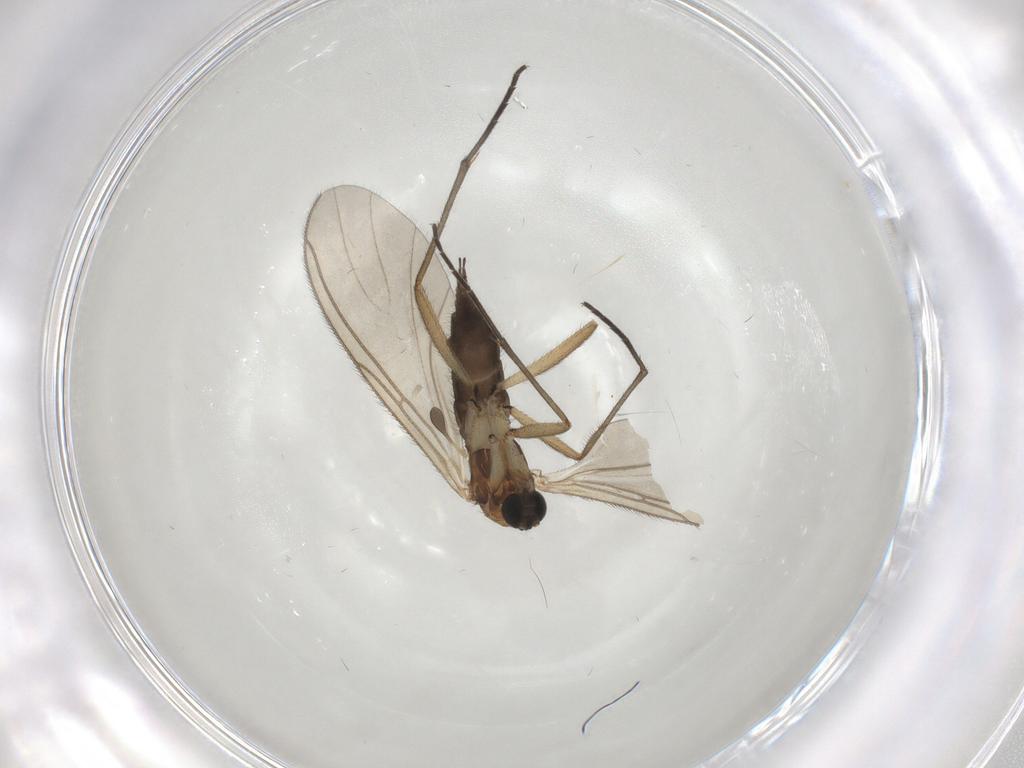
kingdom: Animalia
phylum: Arthropoda
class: Insecta
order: Diptera
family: Sciaridae
